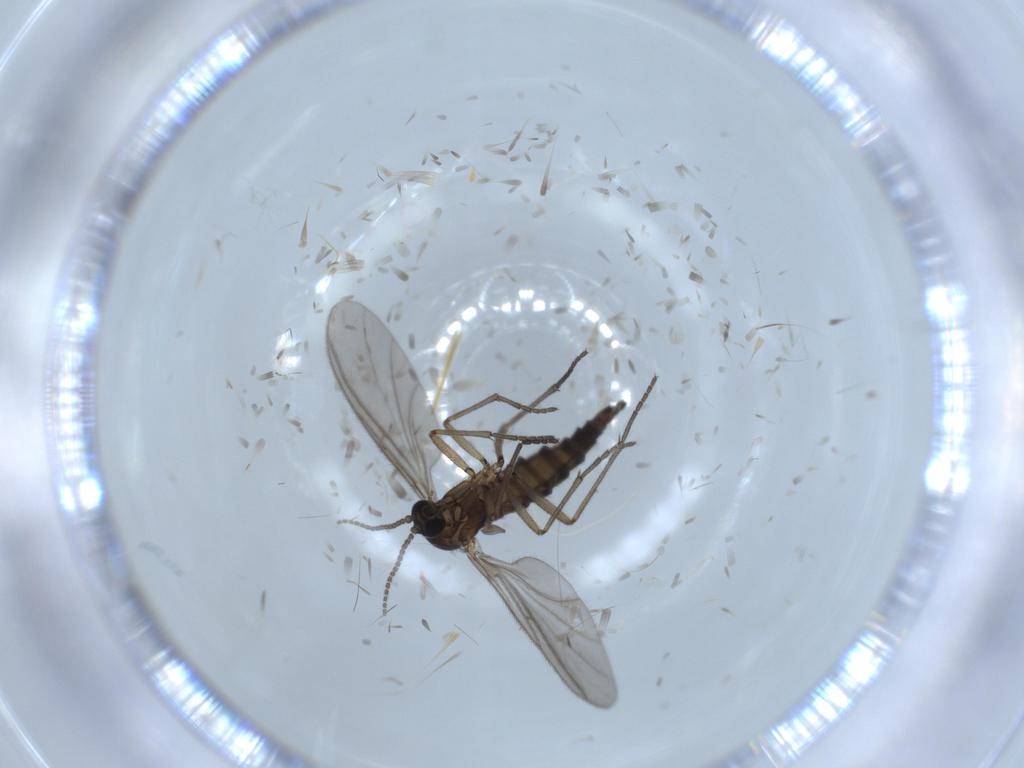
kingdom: Animalia
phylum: Arthropoda
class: Insecta
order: Diptera
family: Sciaridae
